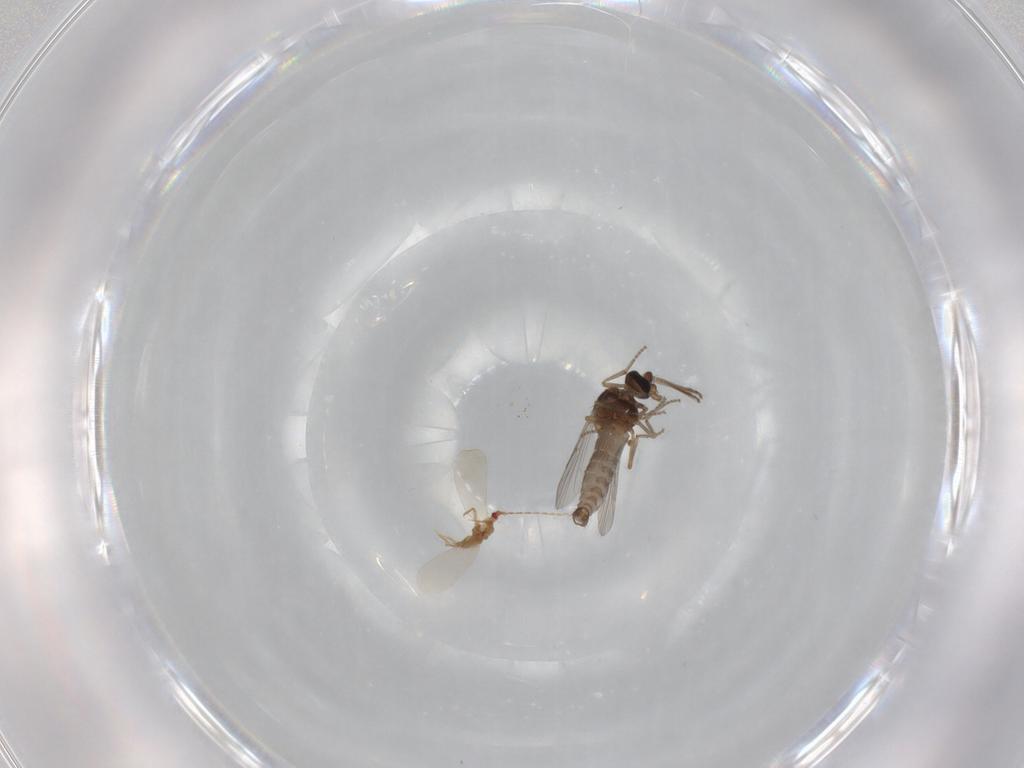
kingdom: Animalia
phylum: Arthropoda
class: Insecta
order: Diptera
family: Ceratopogonidae
